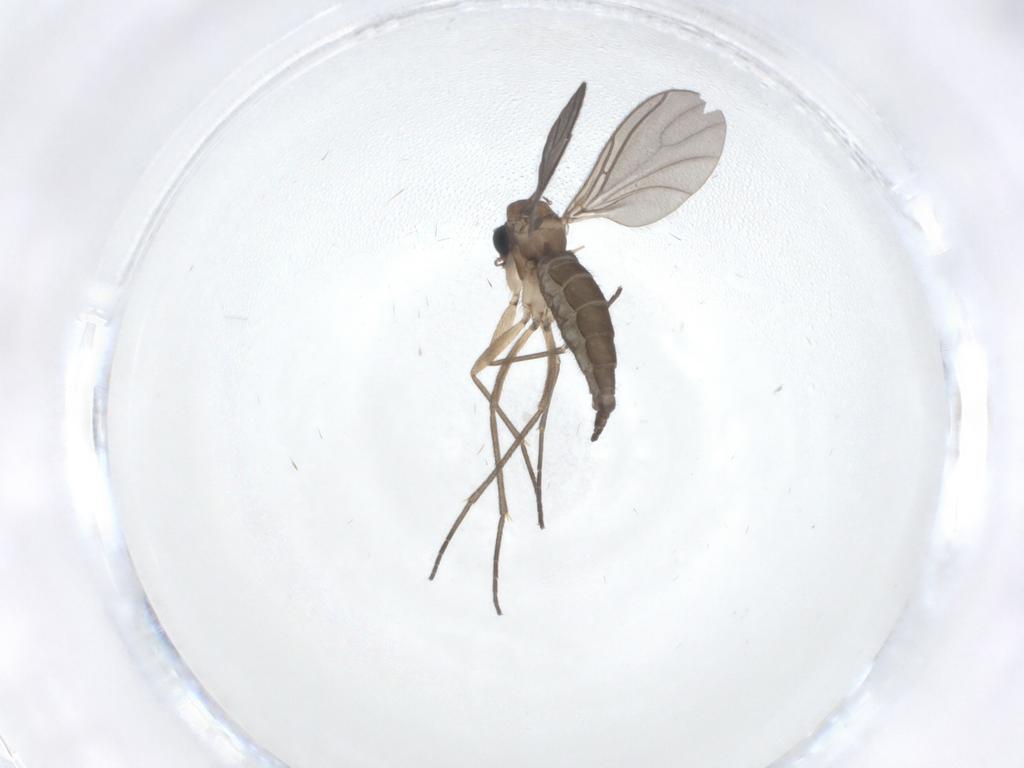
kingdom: Animalia
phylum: Arthropoda
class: Insecta
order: Diptera
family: Sciaridae
